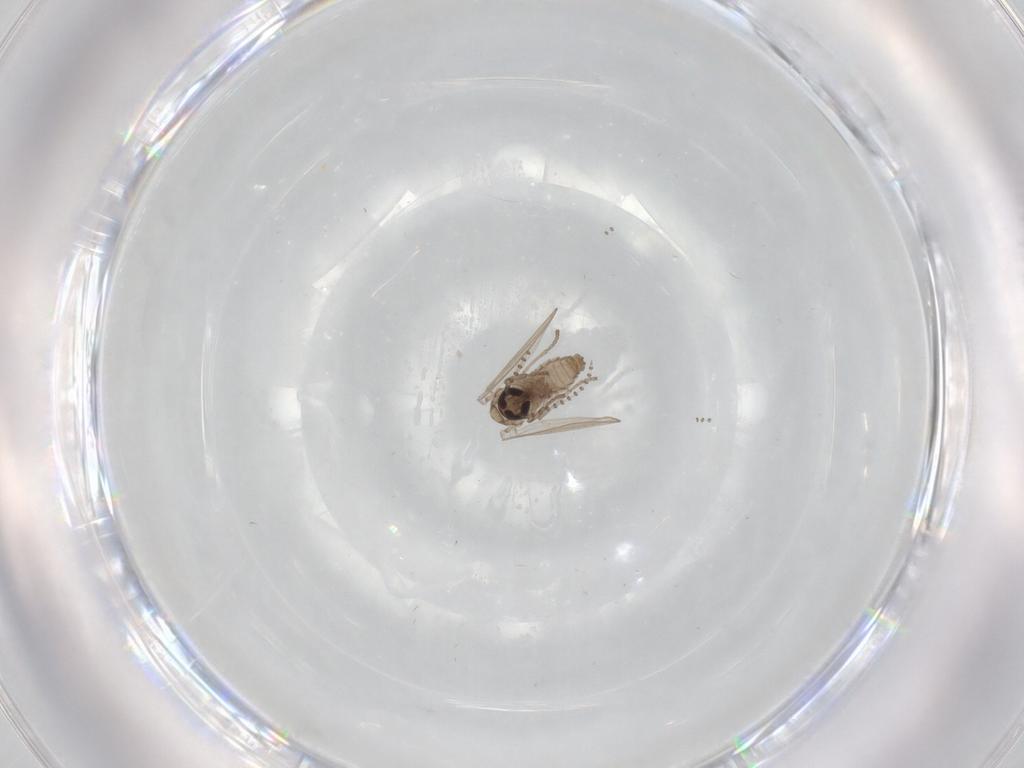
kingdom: Animalia
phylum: Arthropoda
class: Insecta
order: Diptera
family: Psychodidae
